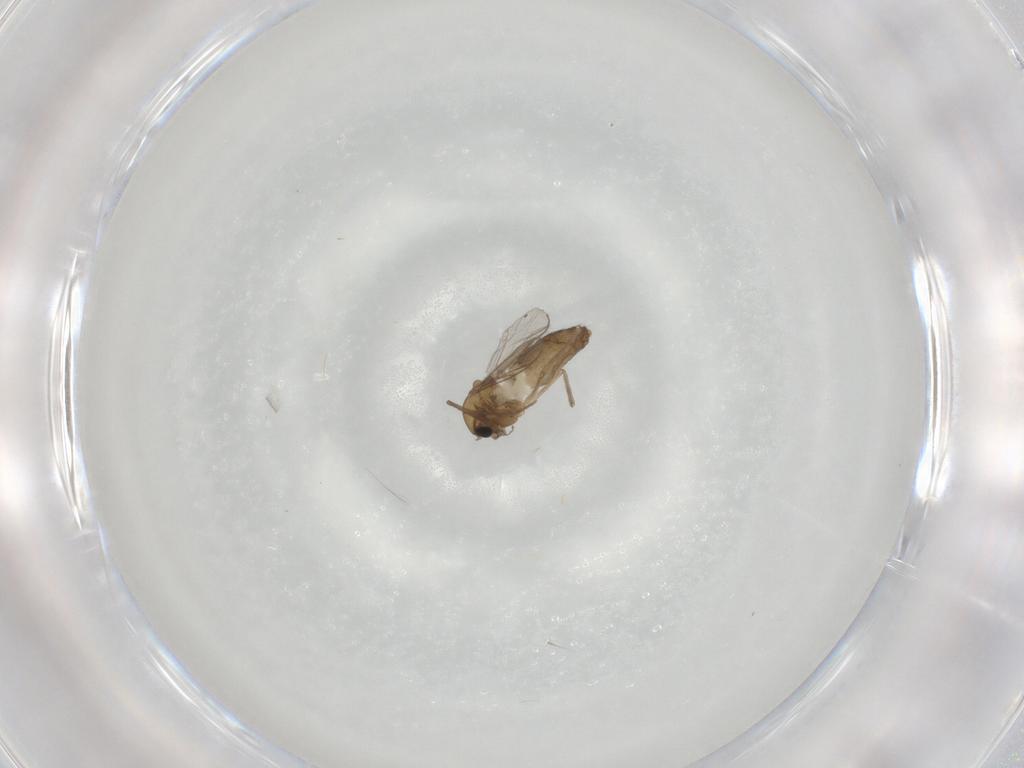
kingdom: Animalia
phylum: Arthropoda
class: Insecta
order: Diptera
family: Chironomidae
